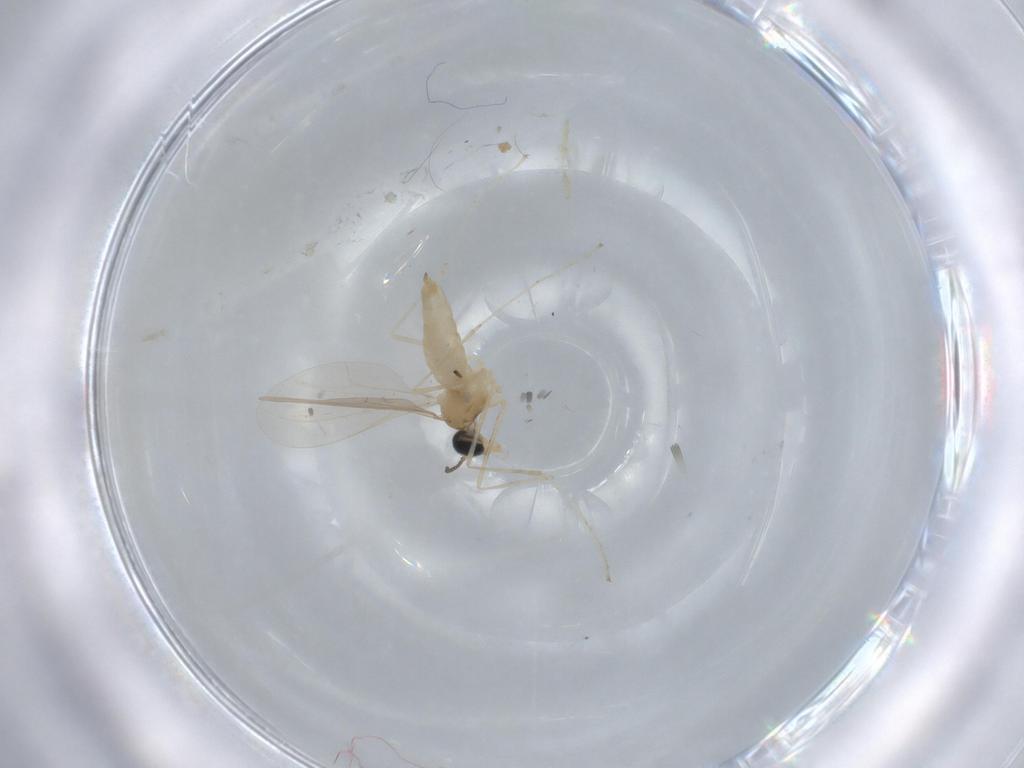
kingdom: Animalia
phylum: Arthropoda
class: Insecta
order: Diptera
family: Cecidomyiidae
